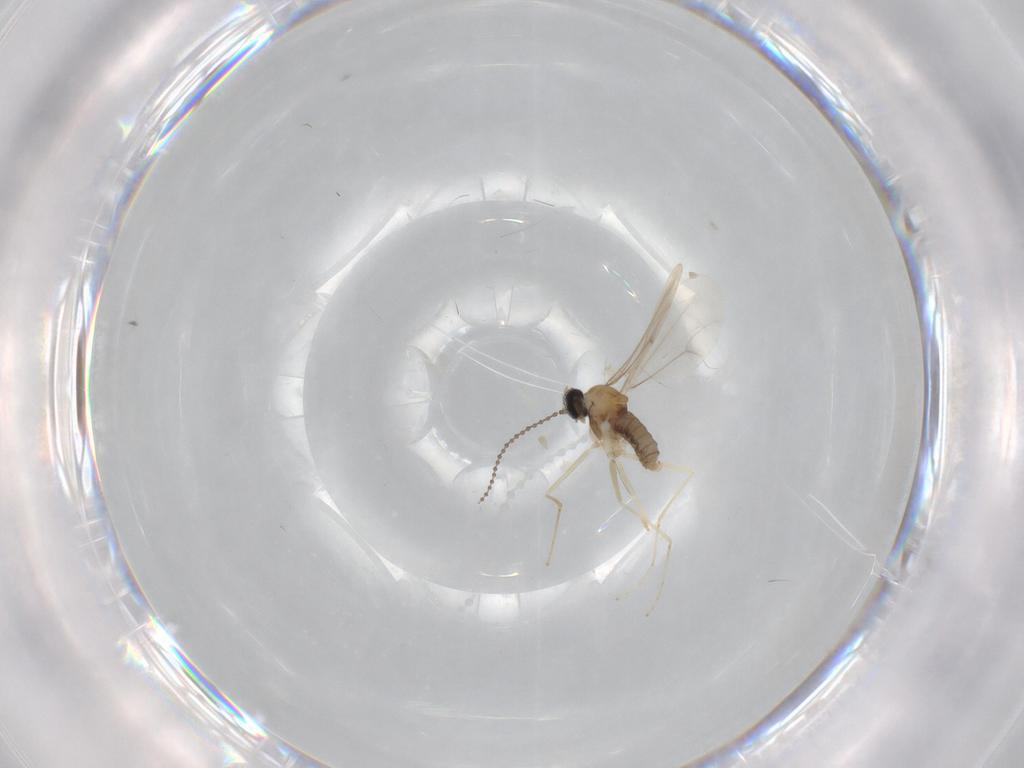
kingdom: Animalia
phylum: Arthropoda
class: Insecta
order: Diptera
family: Cecidomyiidae
